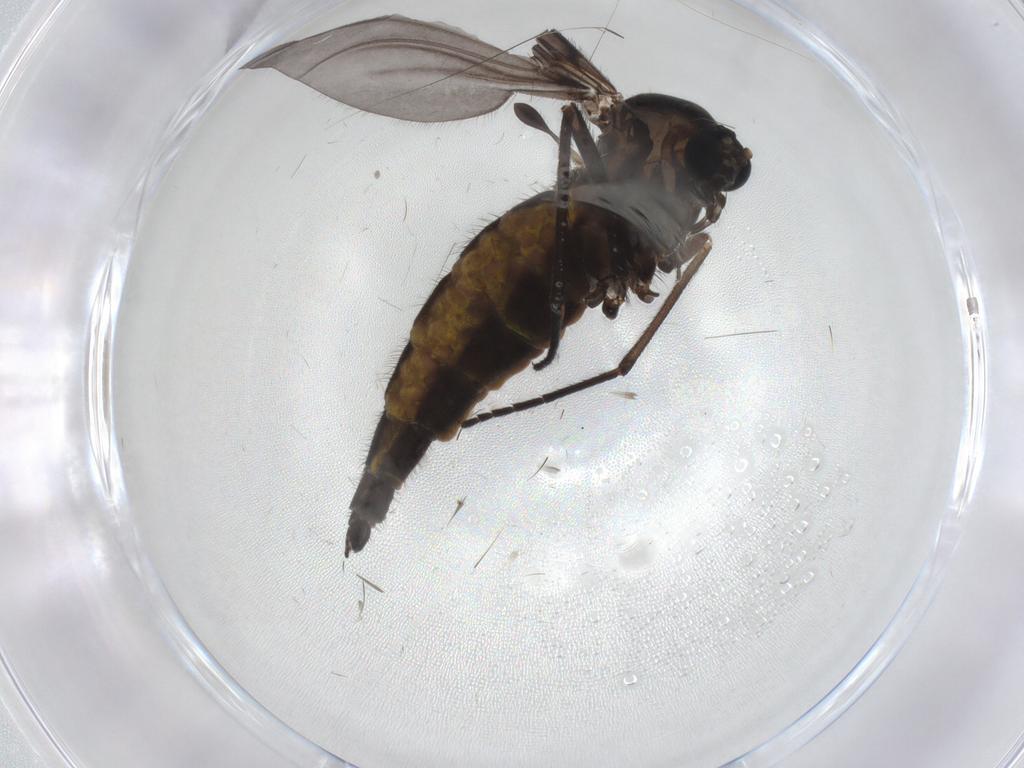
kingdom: Animalia
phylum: Arthropoda
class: Insecta
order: Diptera
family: Sciaridae
